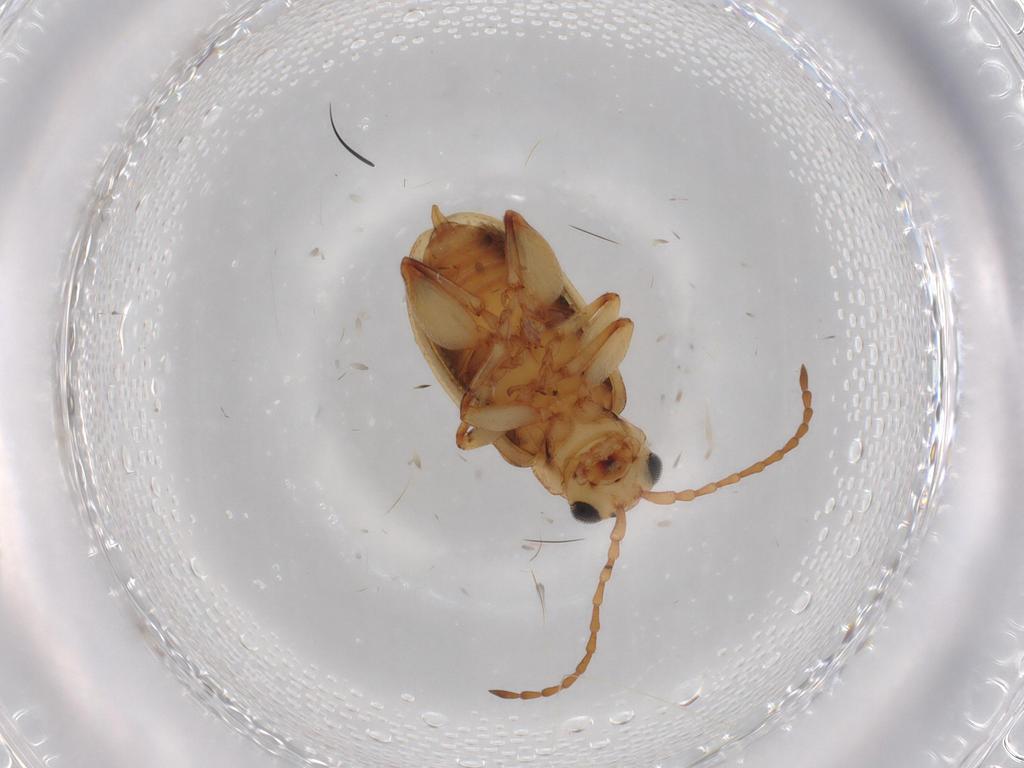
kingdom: Animalia
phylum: Arthropoda
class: Insecta
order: Coleoptera
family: Chrysomelidae
